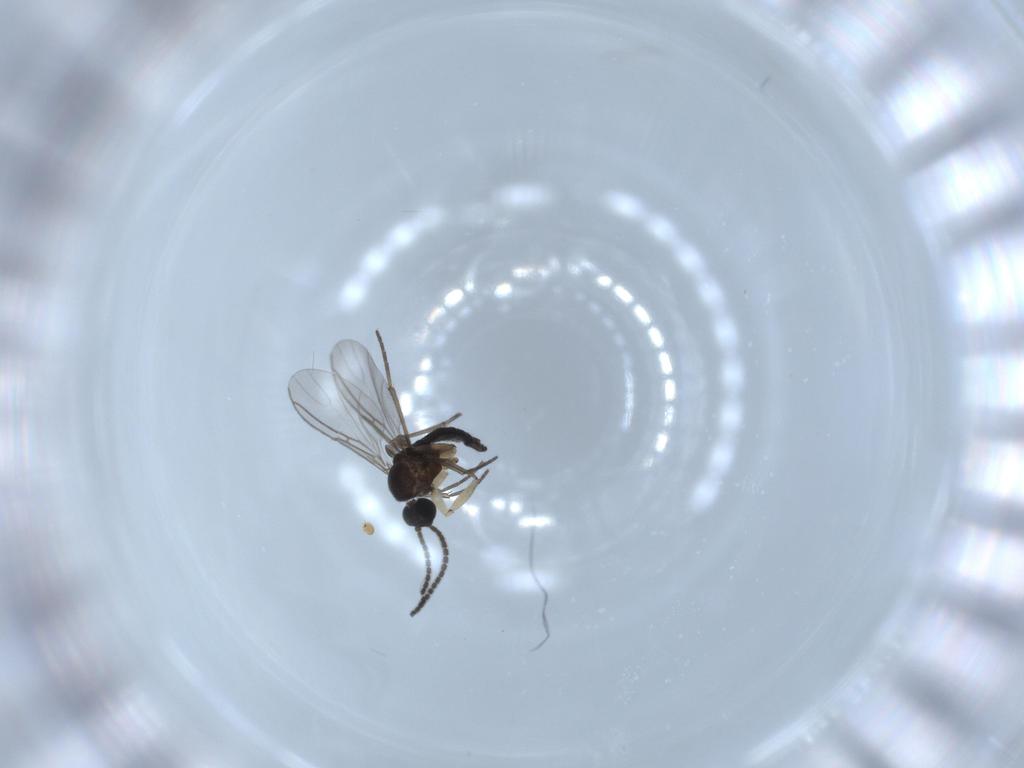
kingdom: Animalia
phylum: Arthropoda
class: Insecta
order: Diptera
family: Sciaridae
